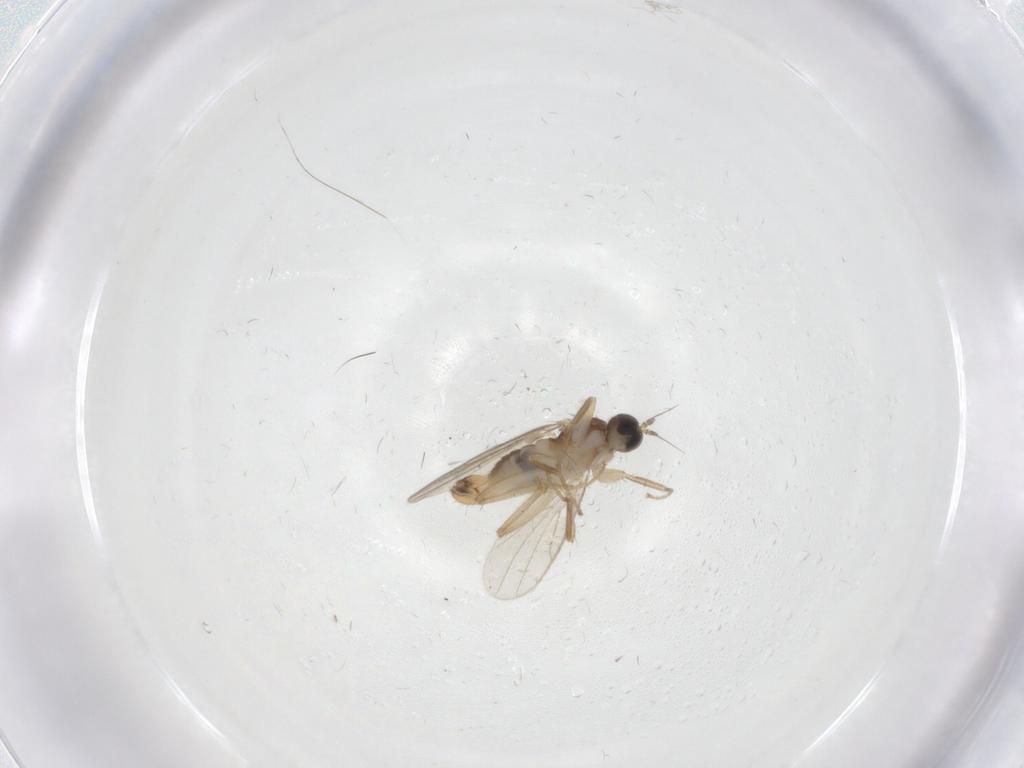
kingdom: Animalia
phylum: Arthropoda
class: Insecta
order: Diptera
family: Hybotidae
